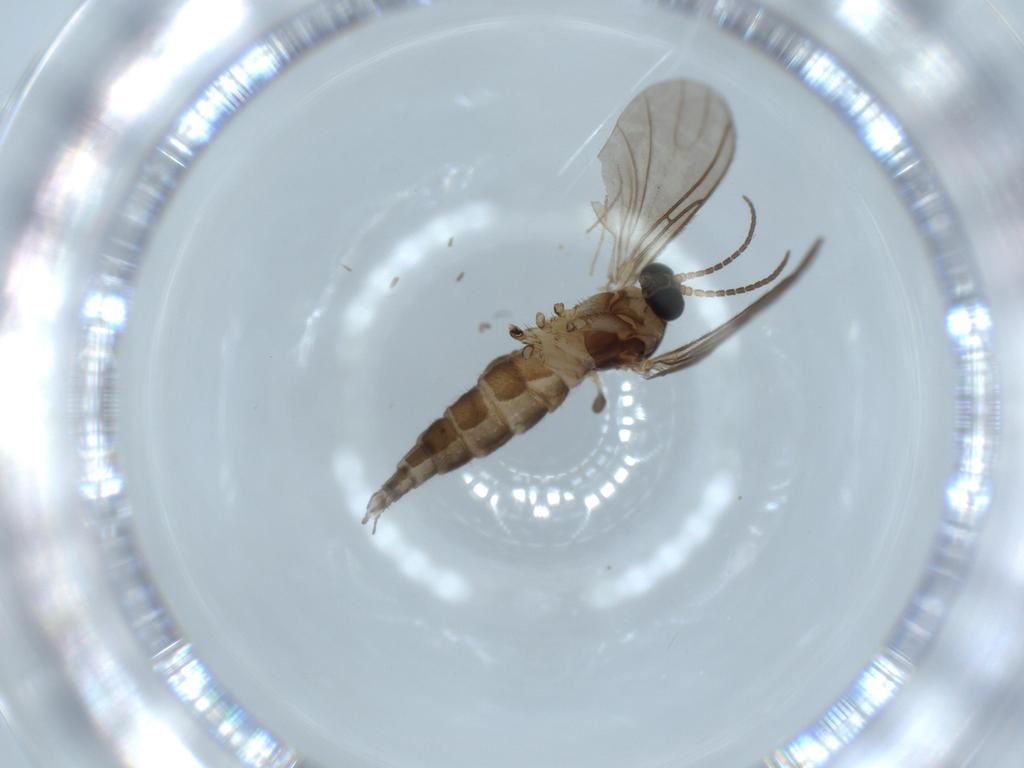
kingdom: Animalia
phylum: Arthropoda
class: Insecta
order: Diptera
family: Sciaridae
